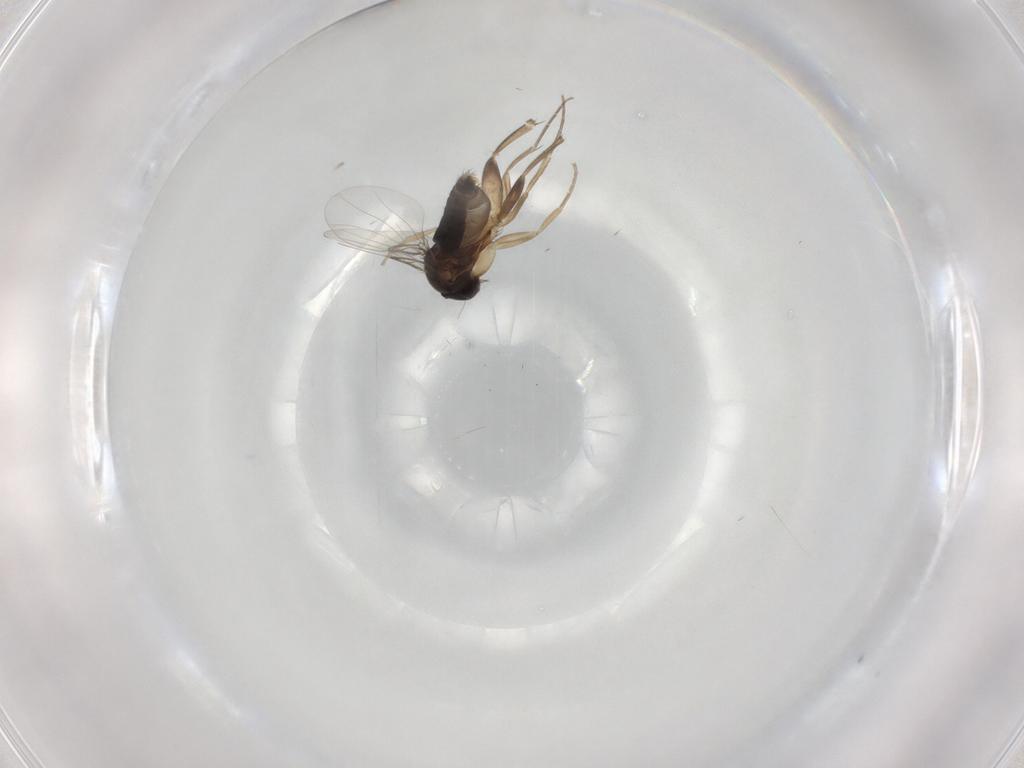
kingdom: Animalia
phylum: Arthropoda
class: Insecta
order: Diptera
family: Phoridae
